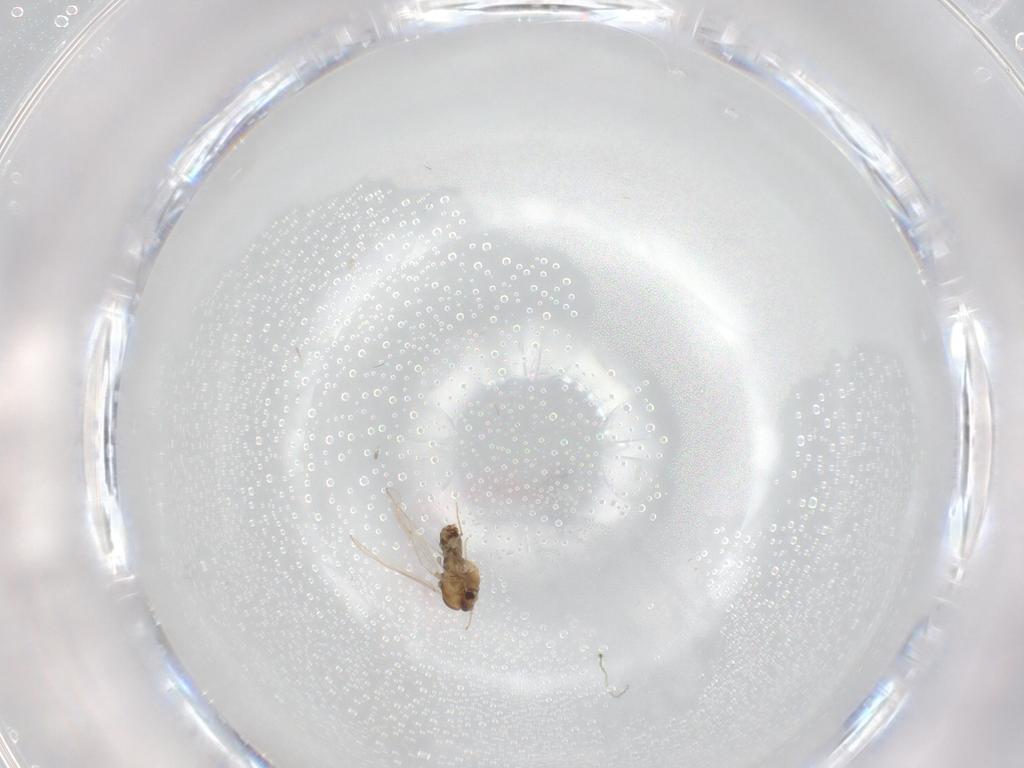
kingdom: Animalia
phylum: Arthropoda
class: Insecta
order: Diptera
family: Chironomidae
